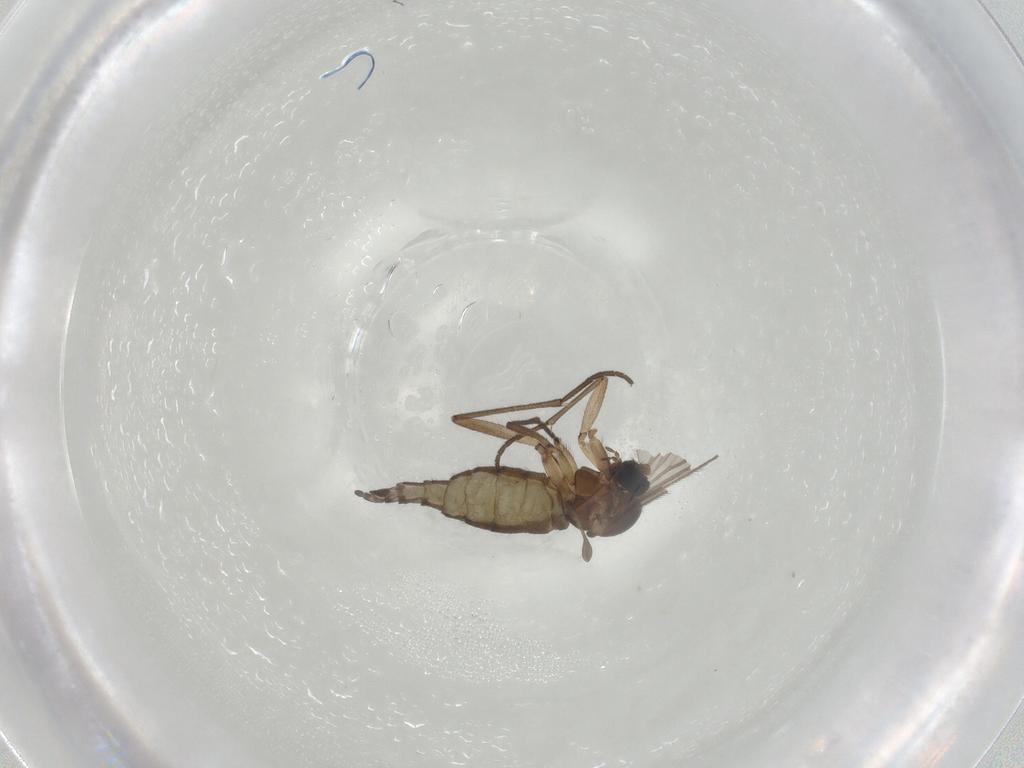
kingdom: Animalia
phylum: Arthropoda
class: Insecta
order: Diptera
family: Sciaridae
